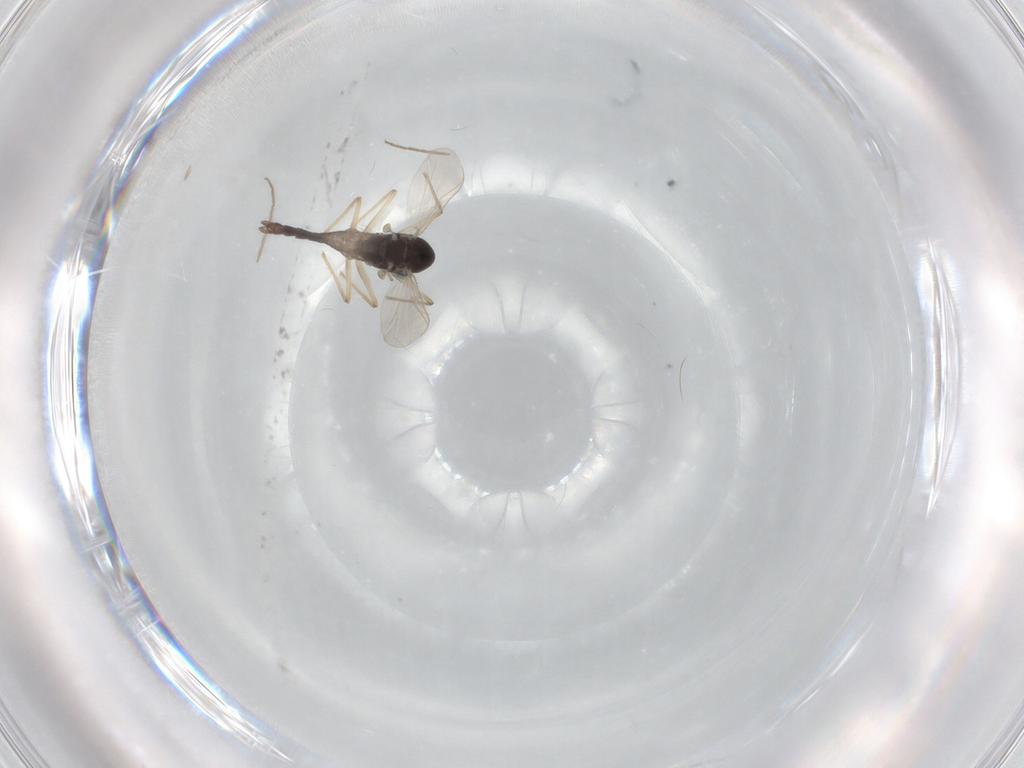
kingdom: Animalia
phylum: Arthropoda
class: Insecta
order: Diptera
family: Chironomidae
